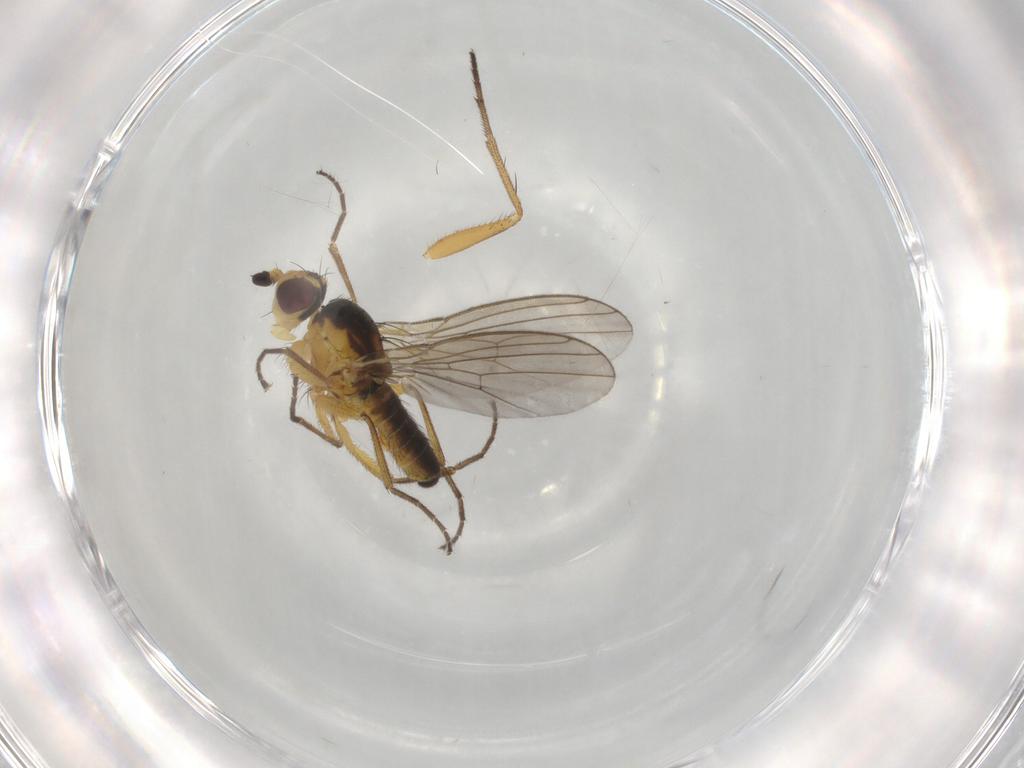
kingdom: Animalia
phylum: Arthropoda
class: Insecta
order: Diptera
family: Agromyzidae
